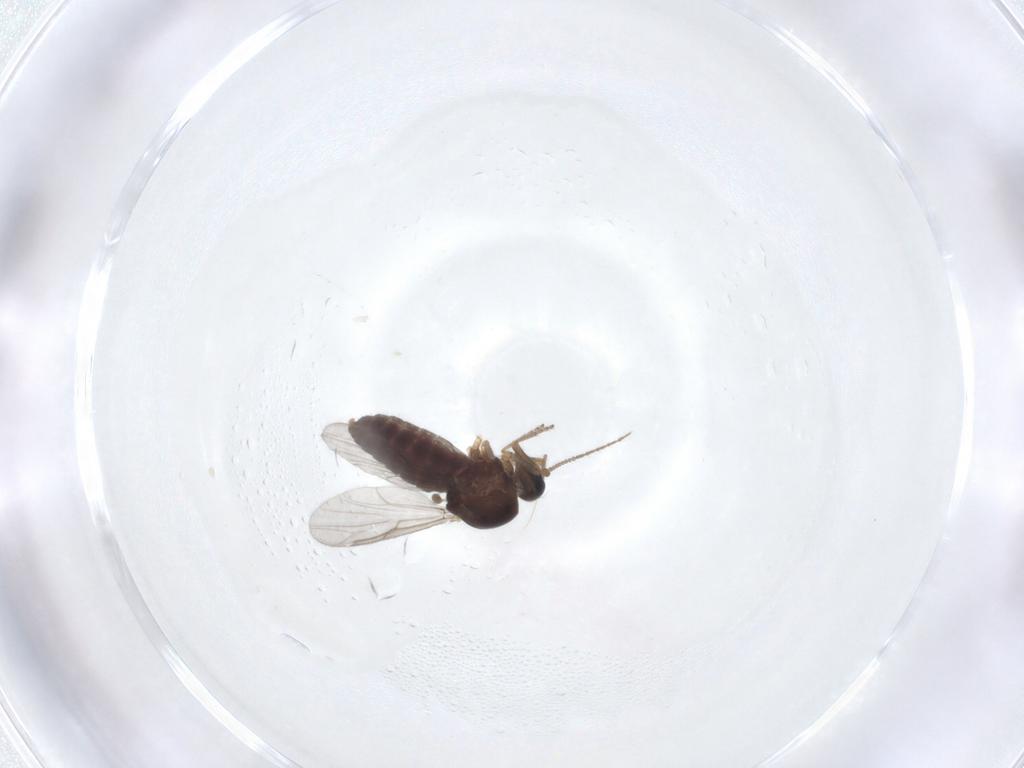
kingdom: Animalia
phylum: Arthropoda
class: Insecta
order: Diptera
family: Ceratopogonidae
